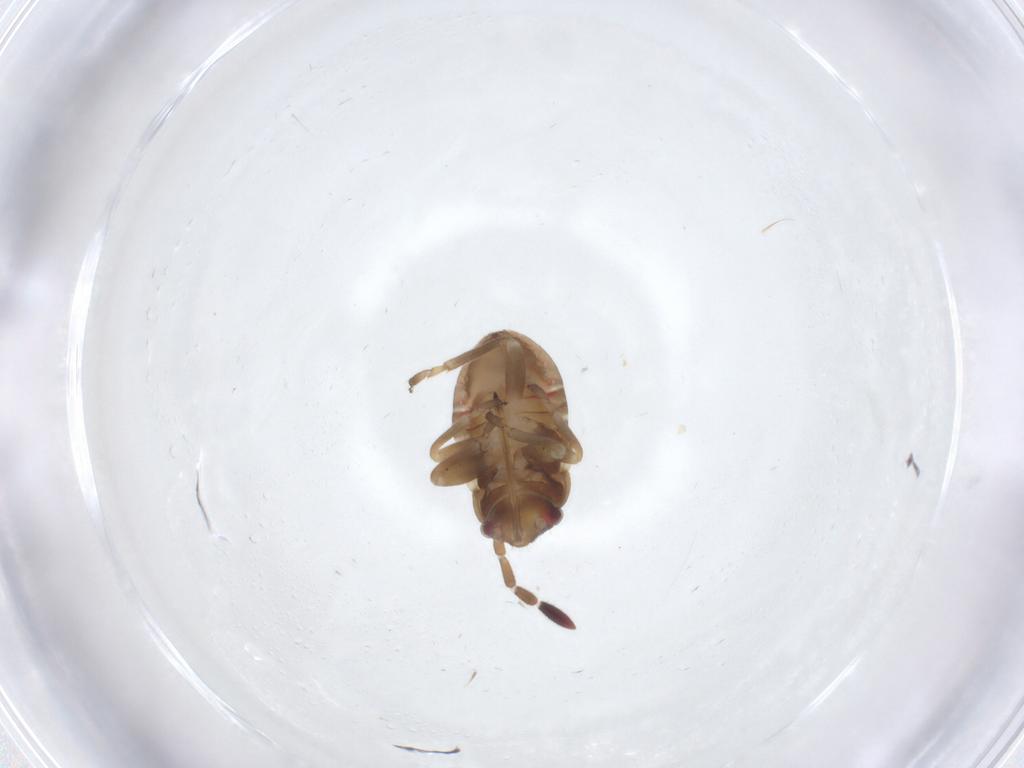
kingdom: Animalia
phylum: Arthropoda
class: Insecta
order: Hemiptera
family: Rhyparochromidae
